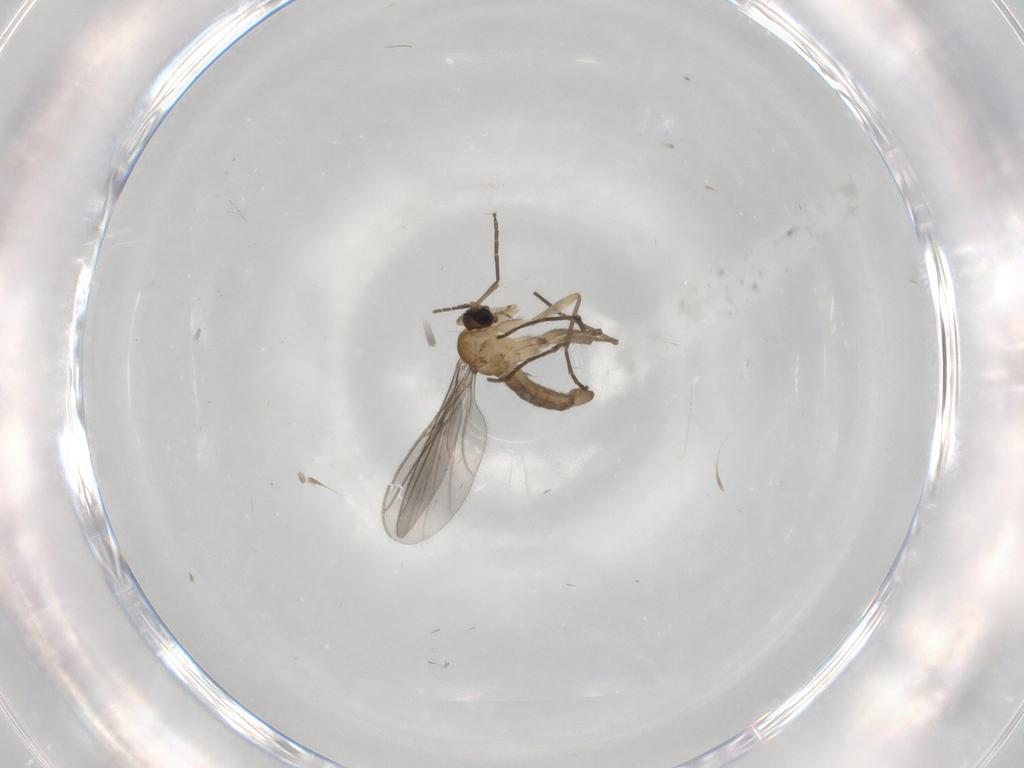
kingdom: Animalia
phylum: Arthropoda
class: Insecta
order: Diptera
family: Sciaridae
